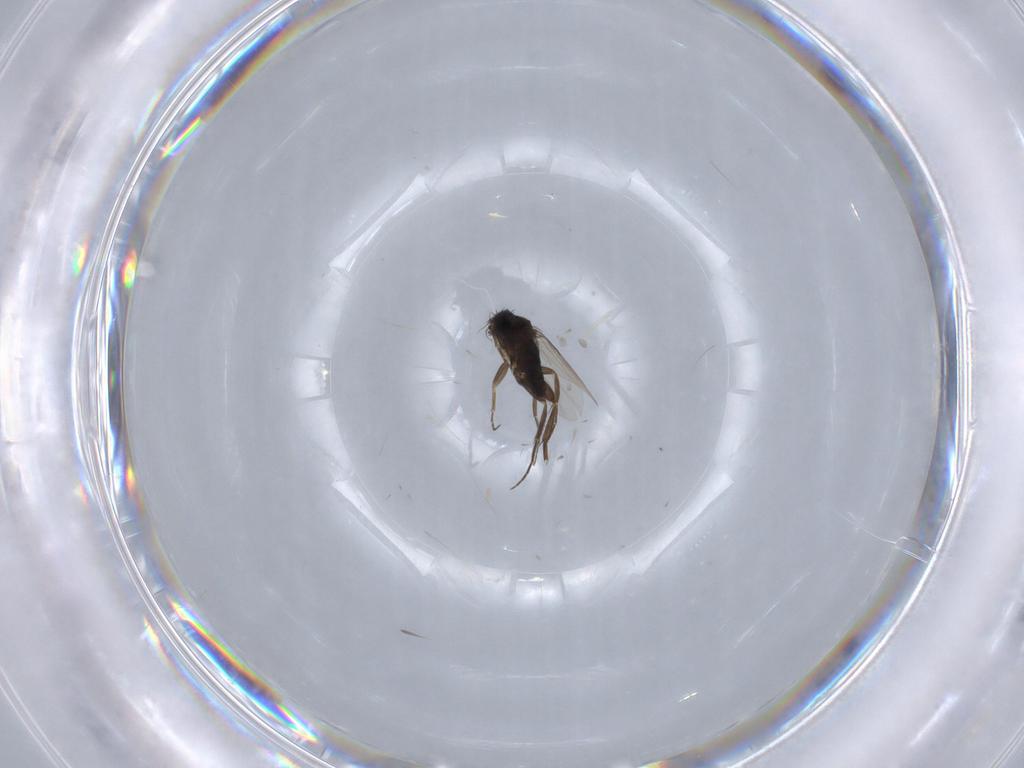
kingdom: Animalia
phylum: Arthropoda
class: Insecta
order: Diptera
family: Phoridae
